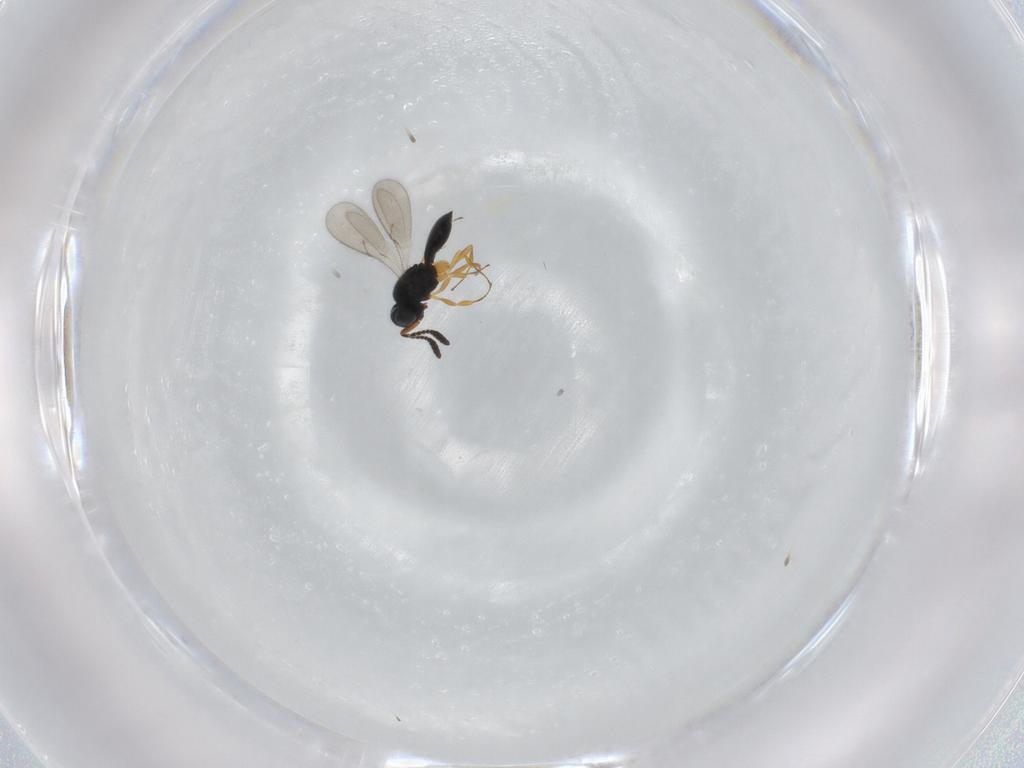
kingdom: Animalia
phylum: Arthropoda
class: Insecta
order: Hymenoptera
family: Scelionidae
